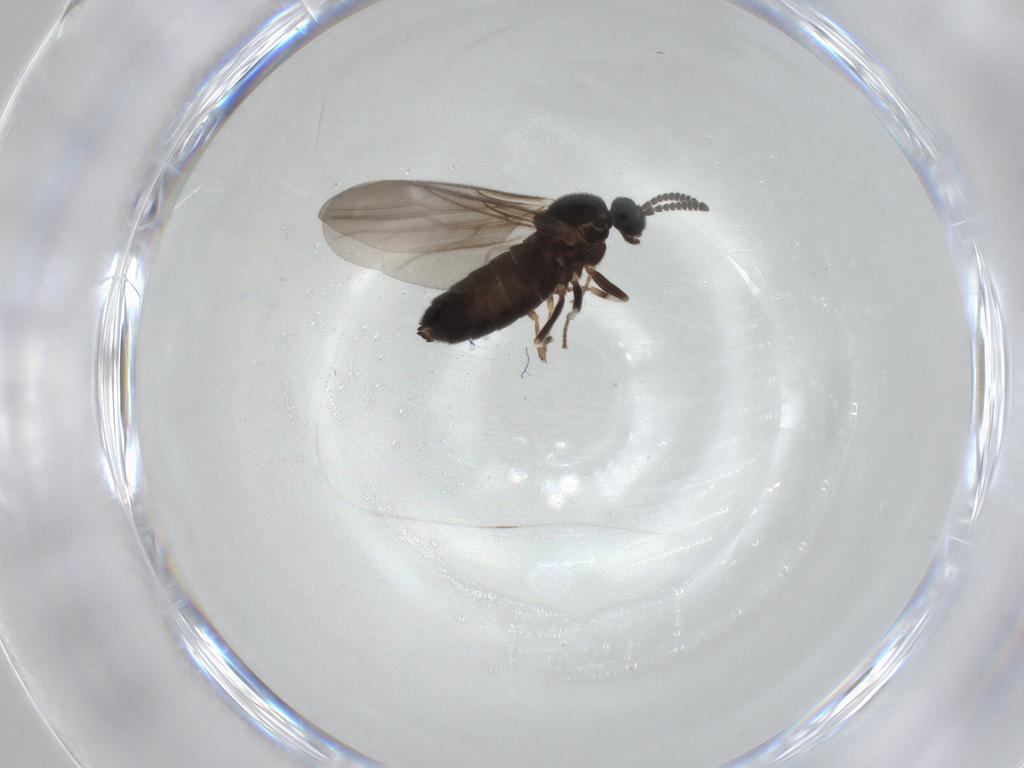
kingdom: Animalia
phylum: Arthropoda
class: Insecta
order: Diptera
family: Scatopsidae
